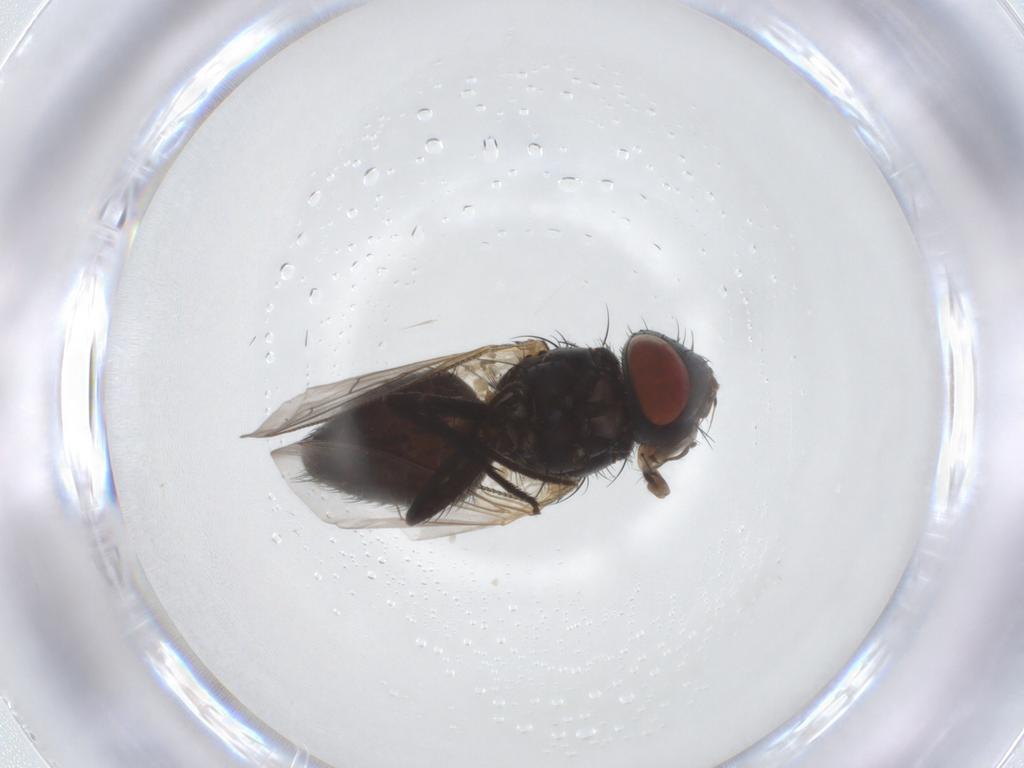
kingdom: Animalia
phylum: Arthropoda
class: Insecta
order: Diptera
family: Sarcophagidae
